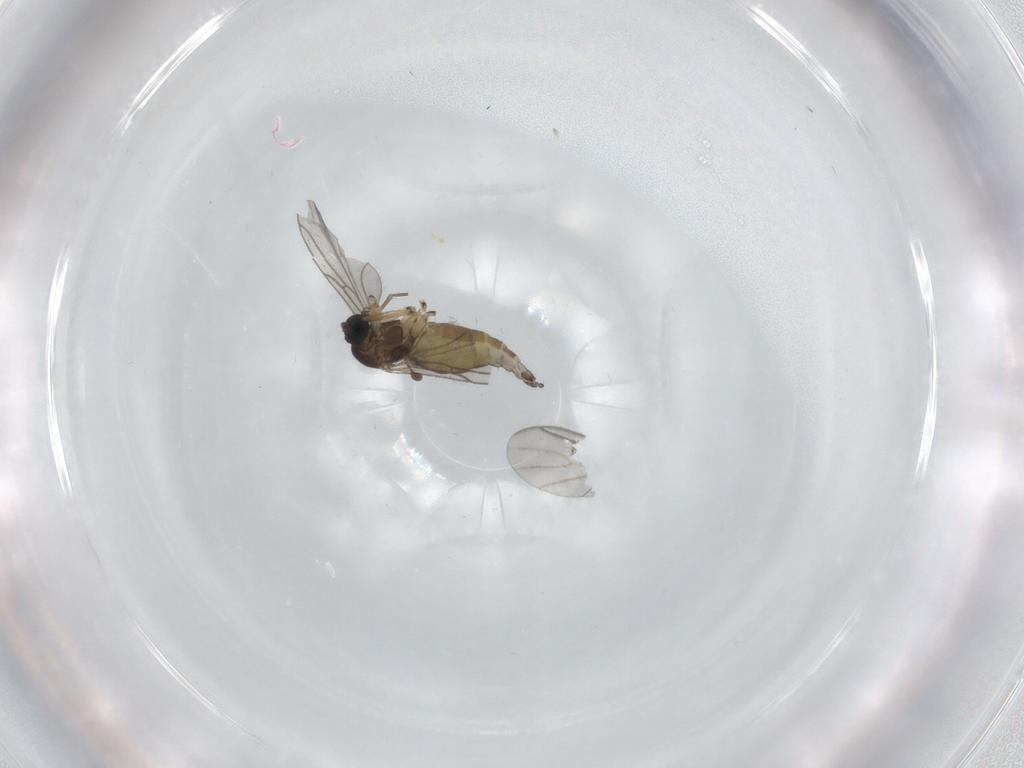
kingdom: Animalia
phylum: Arthropoda
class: Insecta
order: Diptera
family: Sciaridae
